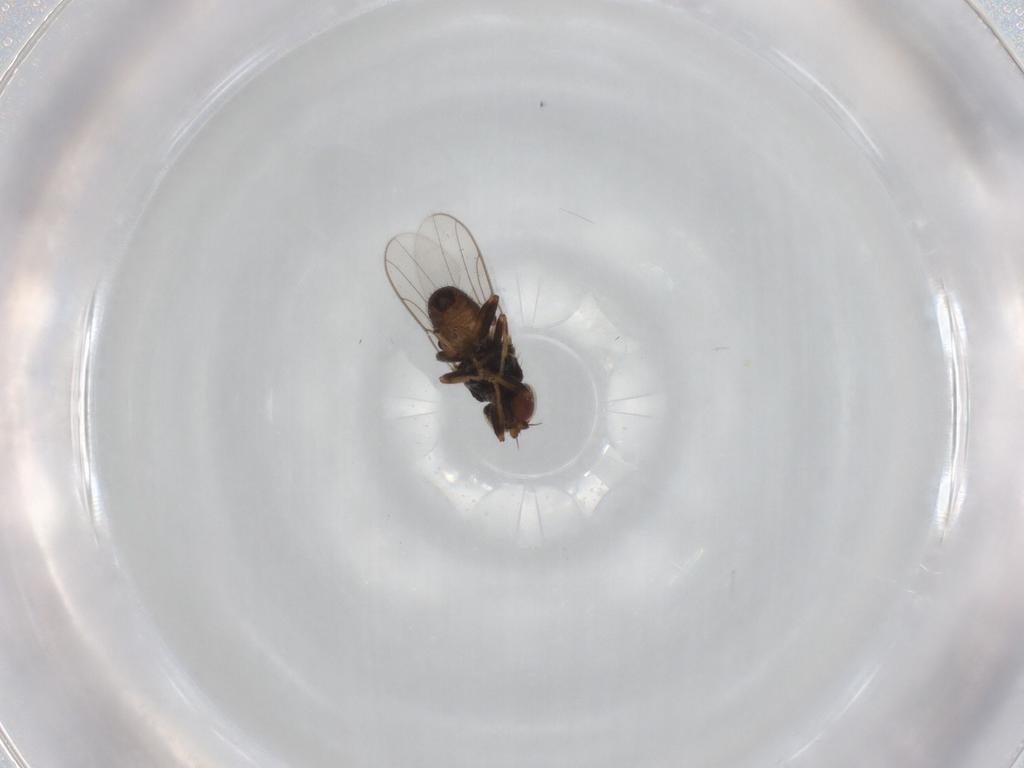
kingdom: Animalia
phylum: Arthropoda
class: Insecta
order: Diptera
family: Chloropidae
